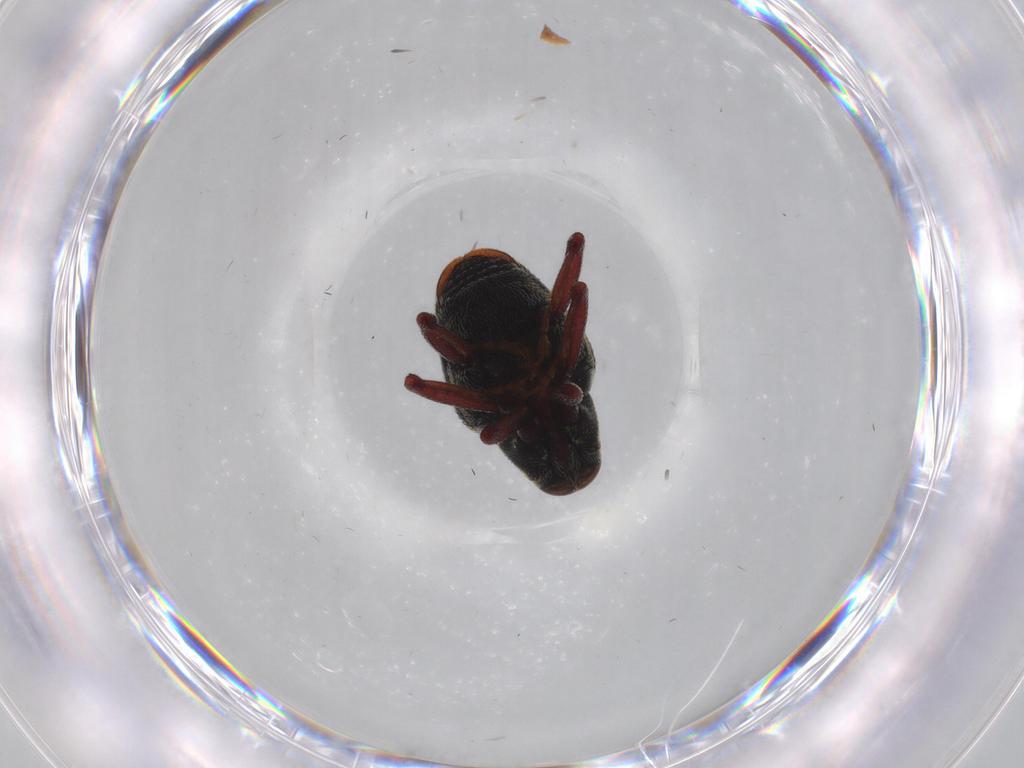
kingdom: Animalia
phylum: Arthropoda
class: Insecta
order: Coleoptera
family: Curculionidae
